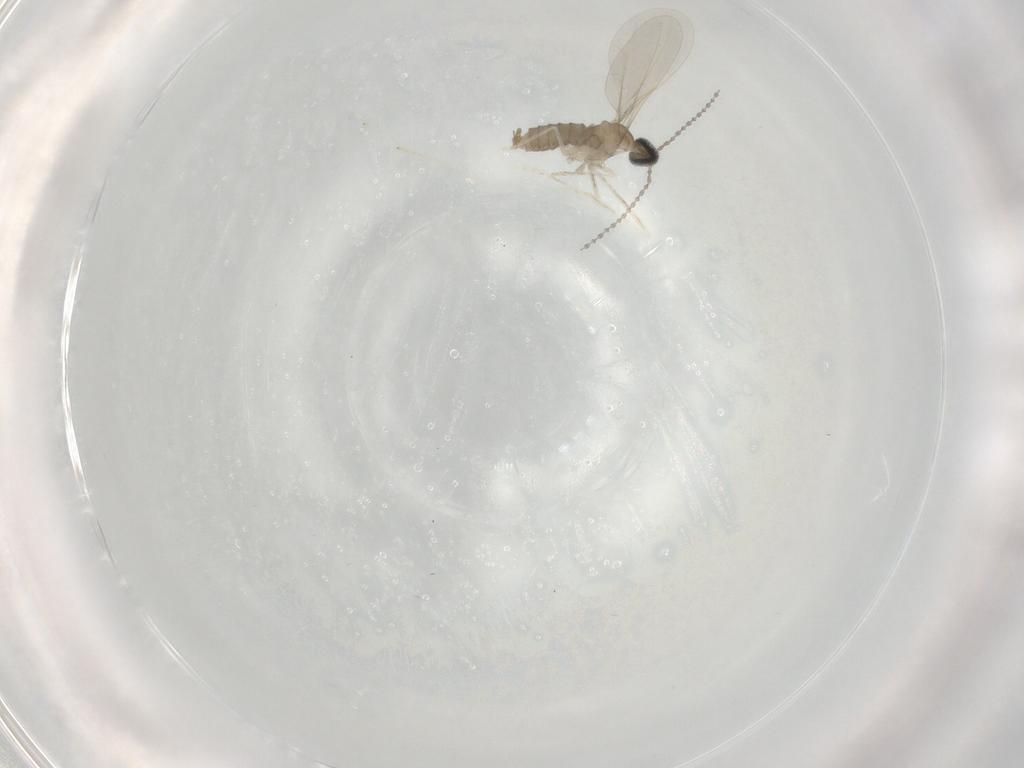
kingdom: Animalia
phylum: Arthropoda
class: Insecta
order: Diptera
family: Cecidomyiidae
